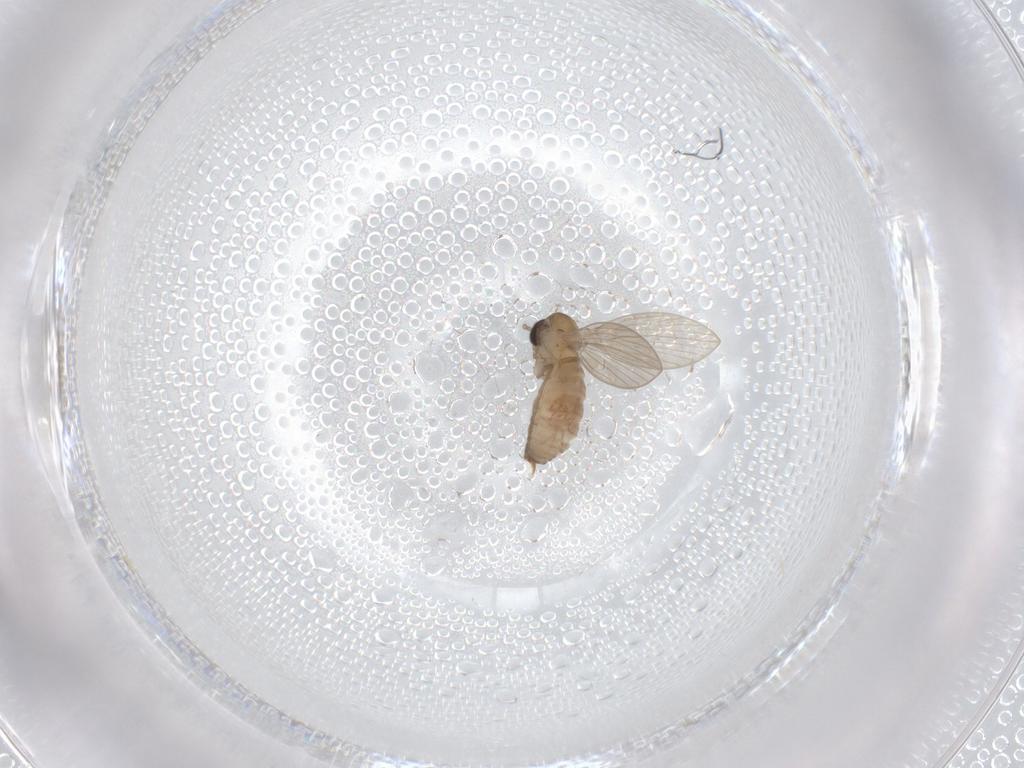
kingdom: Animalia
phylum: Arthropoda
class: Insecta
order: Diptera
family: Psychodidae
